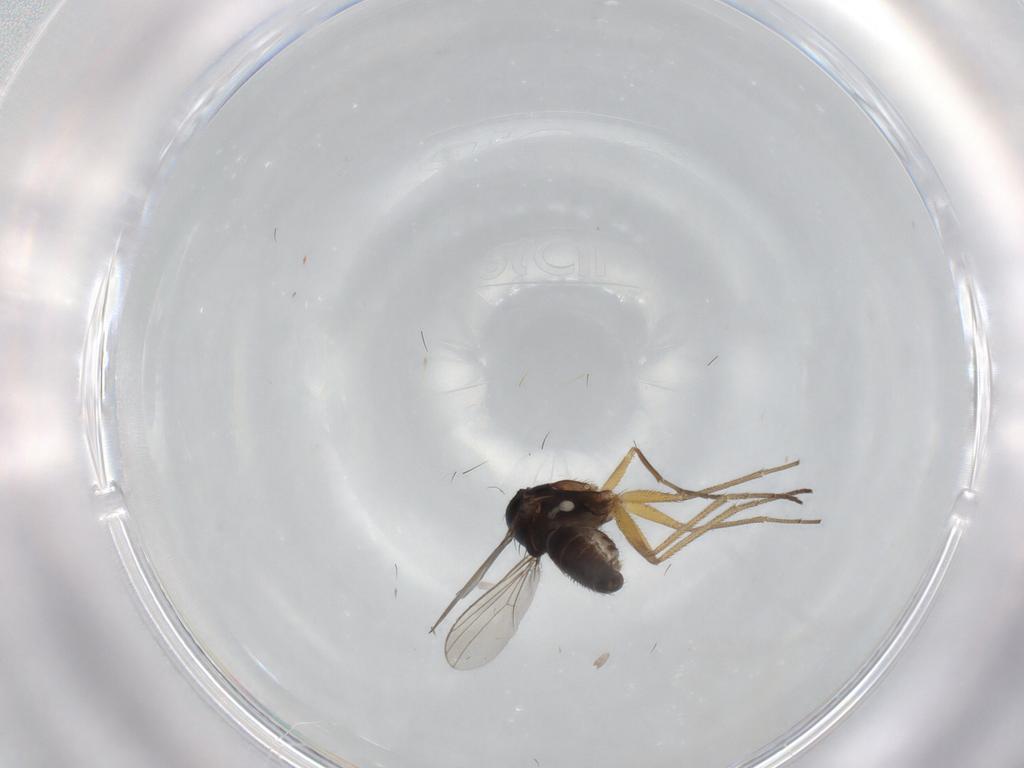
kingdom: Animalia
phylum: Arthropoda
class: Insecta
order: Diptera
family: Dolichopodidae
